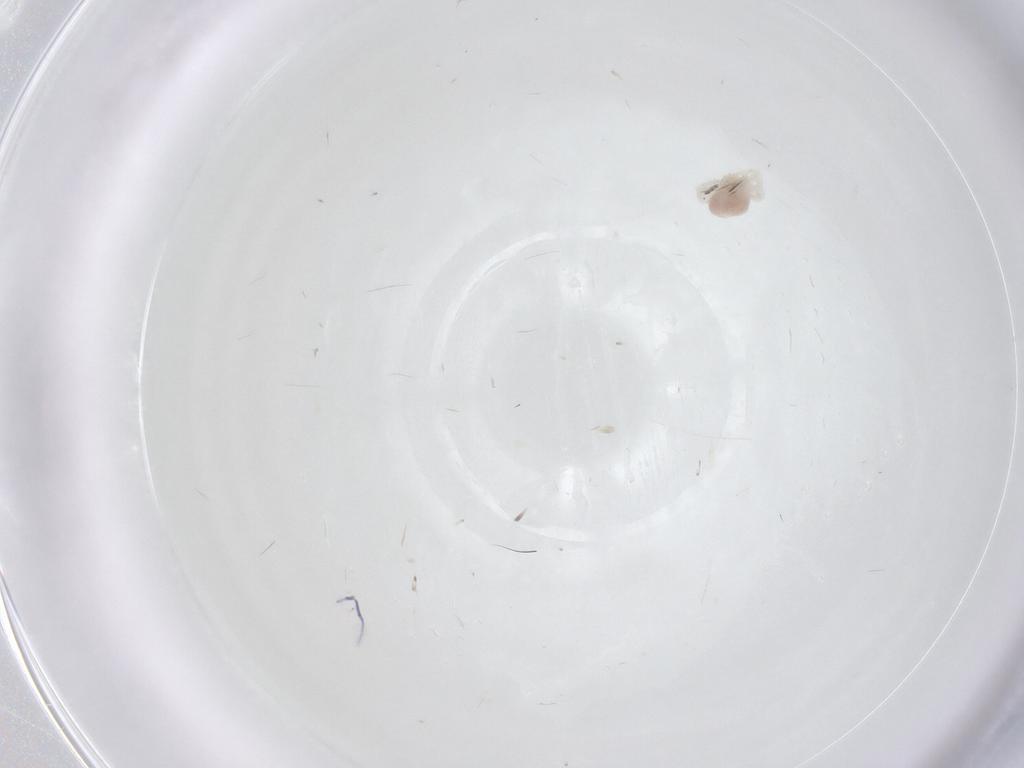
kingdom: Animalia
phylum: Arthropoda
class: Arachnida
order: Trombidiformes
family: Anystidae
